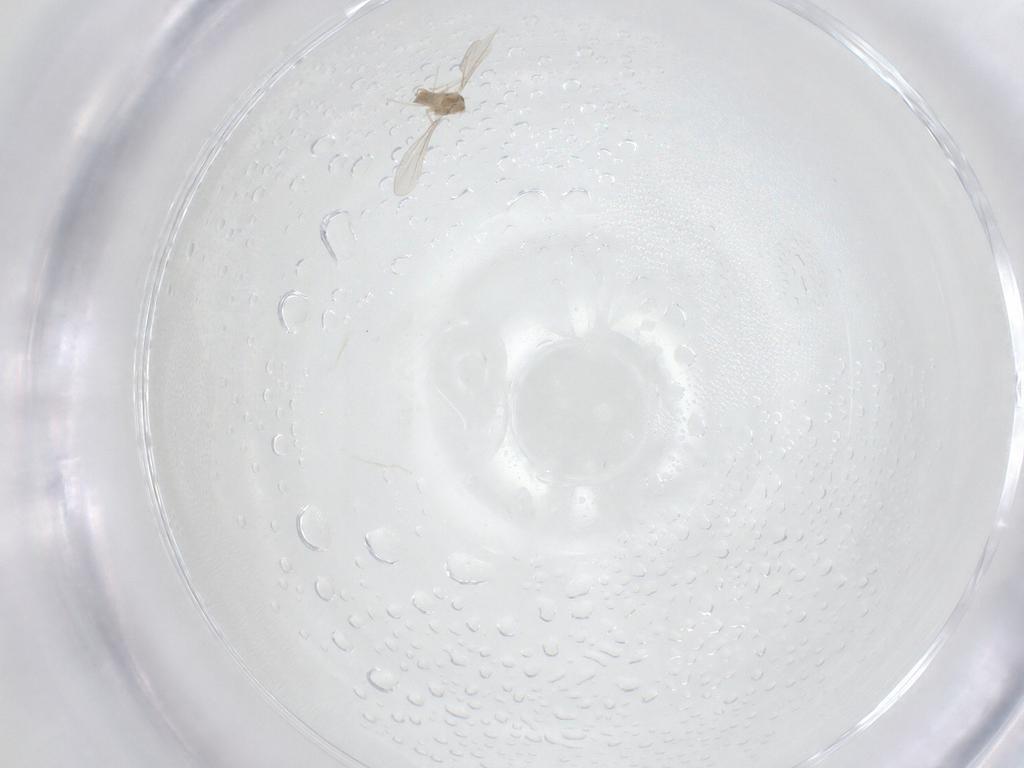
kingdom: Animalia
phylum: Arthropoda
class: Insecta
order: Diptera
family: Cecidomyiidae
